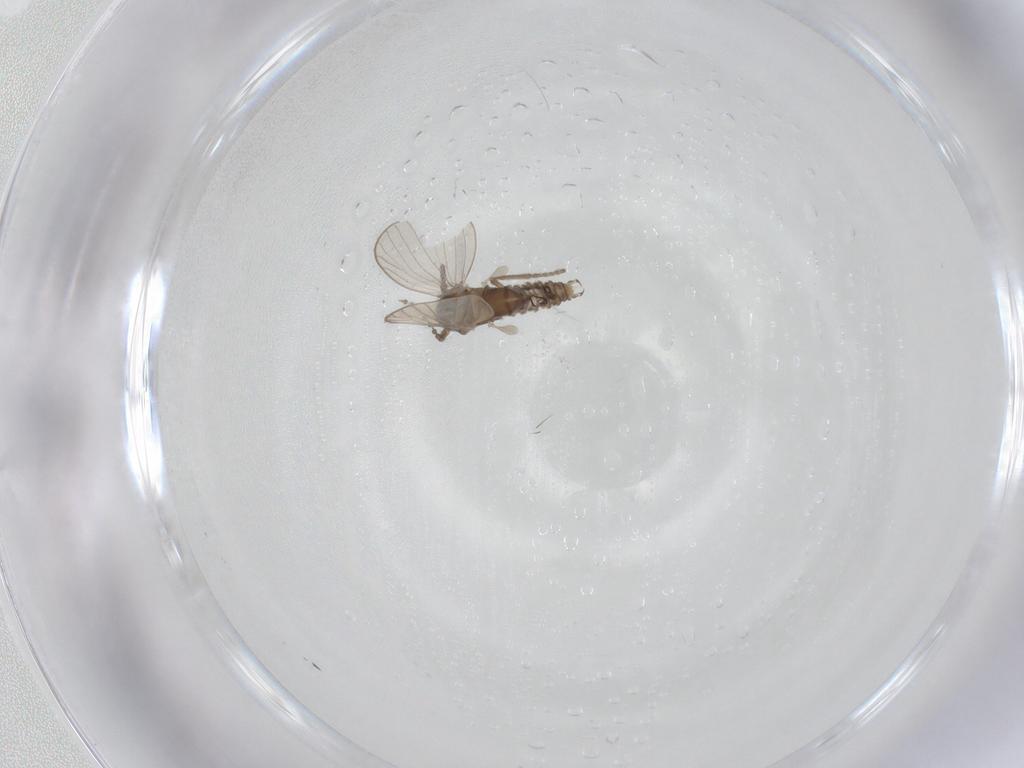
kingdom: Animalia
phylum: Arthropoda
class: Insecta
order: Diptera
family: Psychodidae
